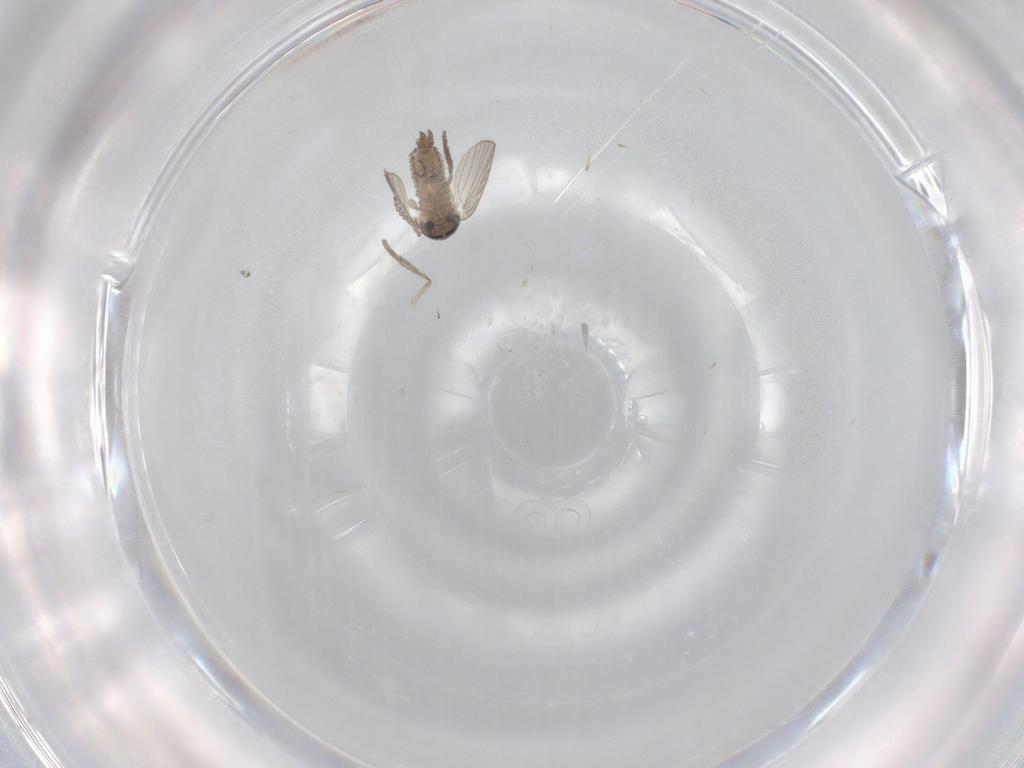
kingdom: Animalia
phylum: Arthropoda
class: Insecta
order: Diptera
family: Psychodidae
